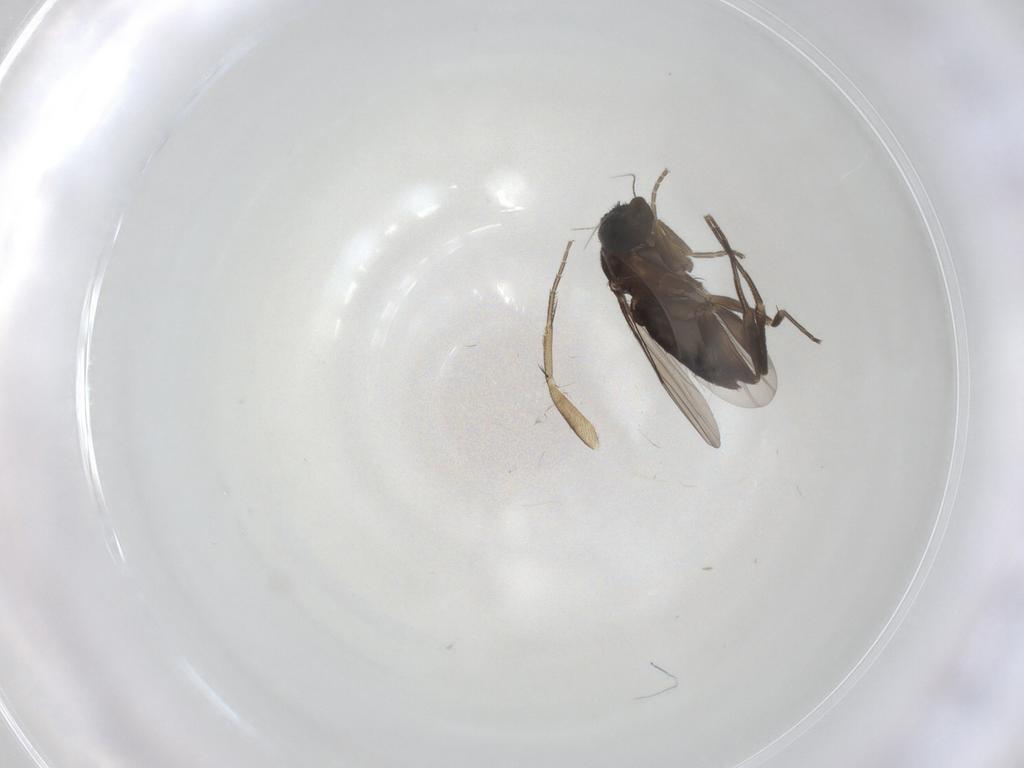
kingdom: Animalia
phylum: Arthropoda
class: Insecta
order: Diptera
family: Phoridae
